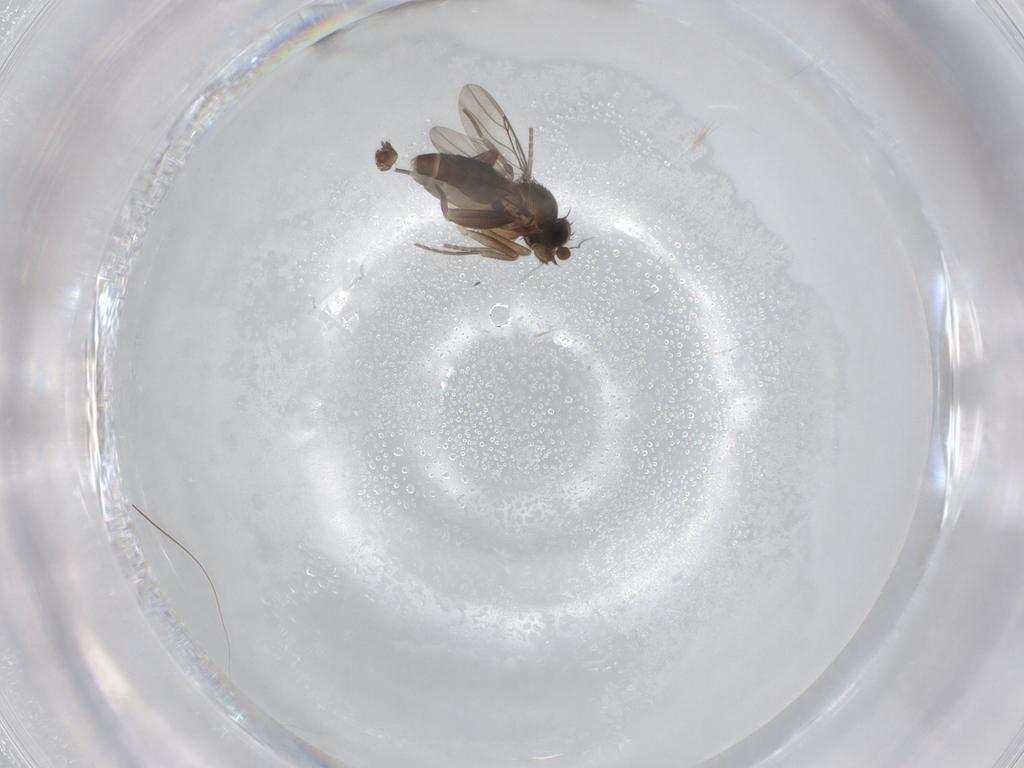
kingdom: Animalia
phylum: Arthropoda
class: Insecta
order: Diptera
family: Phoridae
